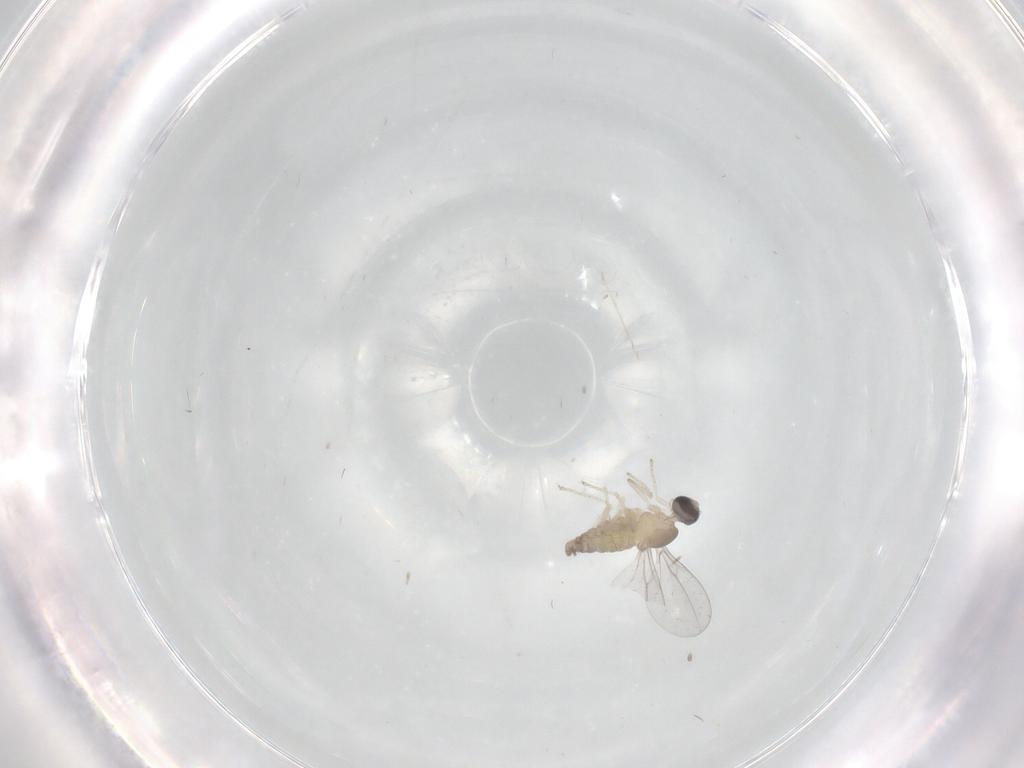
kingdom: Animalia
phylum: Arthropoda
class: Insecta
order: Diptera
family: Cecidomyiidae
